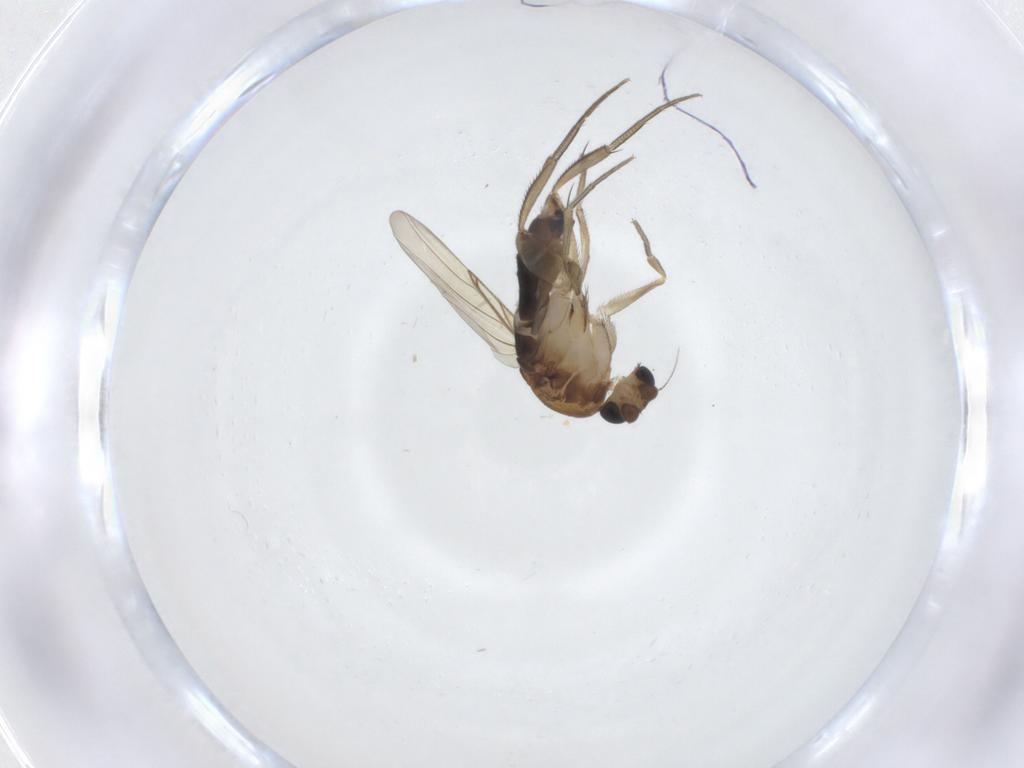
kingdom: Animalia
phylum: Arthropoda
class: Insecta
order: Diptera
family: Phoridae
